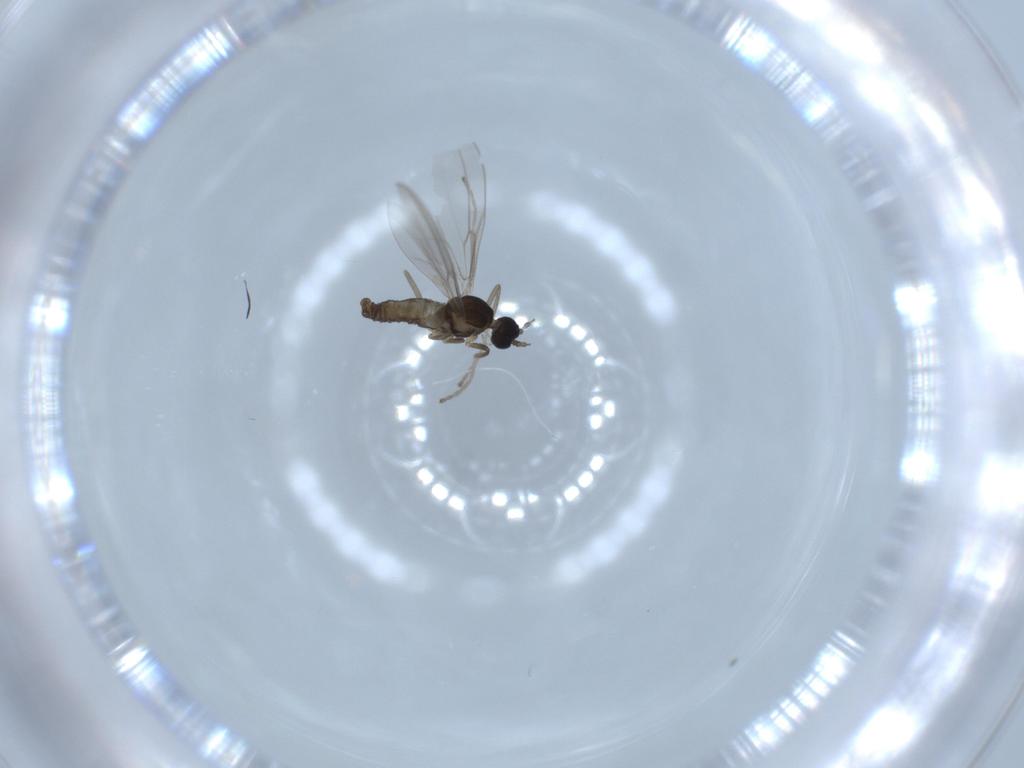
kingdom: Animalia
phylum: Arthropoda
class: Insecta
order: Diptera
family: Cecidomyiidae
